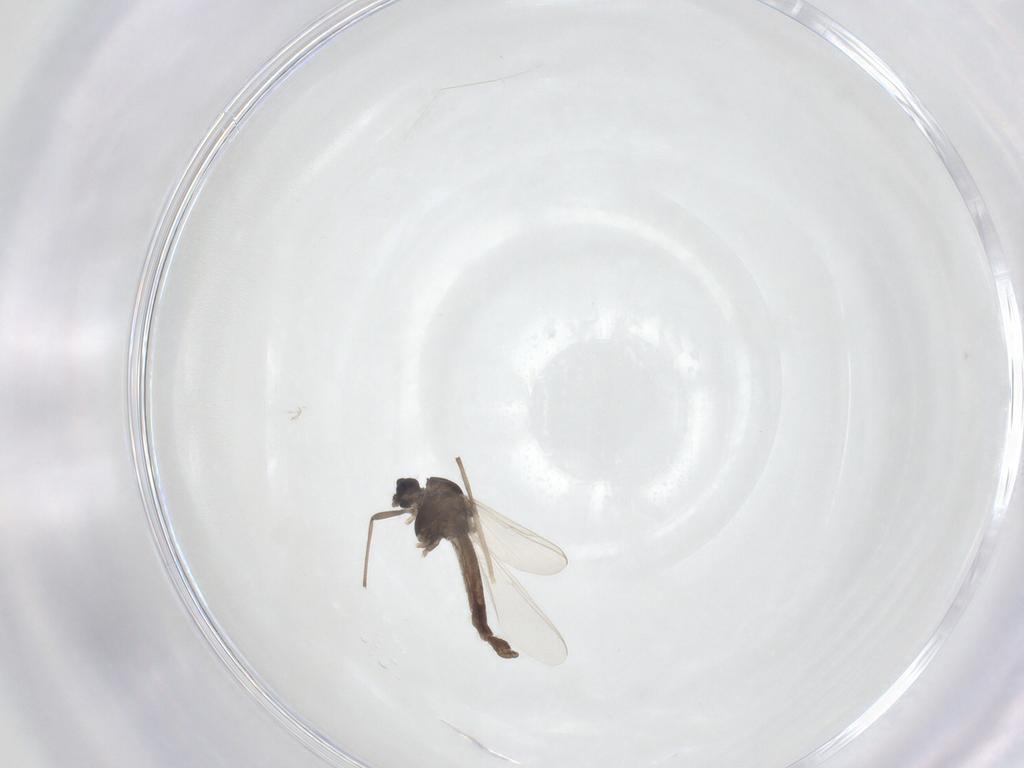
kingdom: Animalia
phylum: Arthropoda
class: Insecta
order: Diptera
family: Chironomidae
